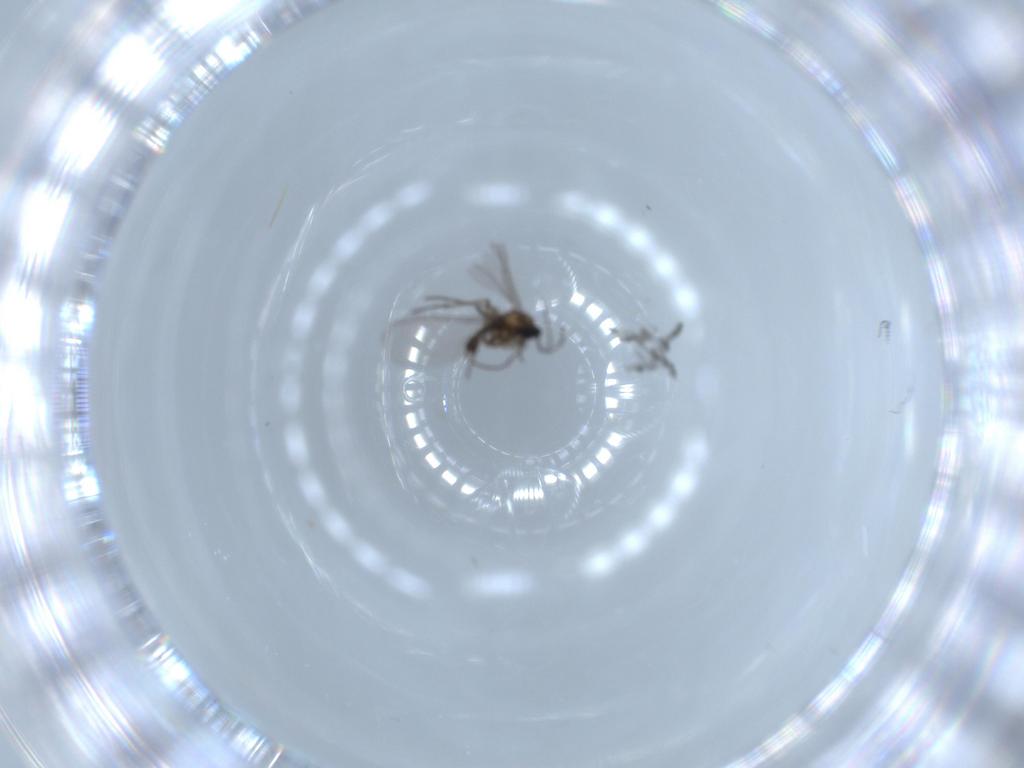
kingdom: Animalia
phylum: Arthropoda
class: Insecta
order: Diptera
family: Sciaridae
